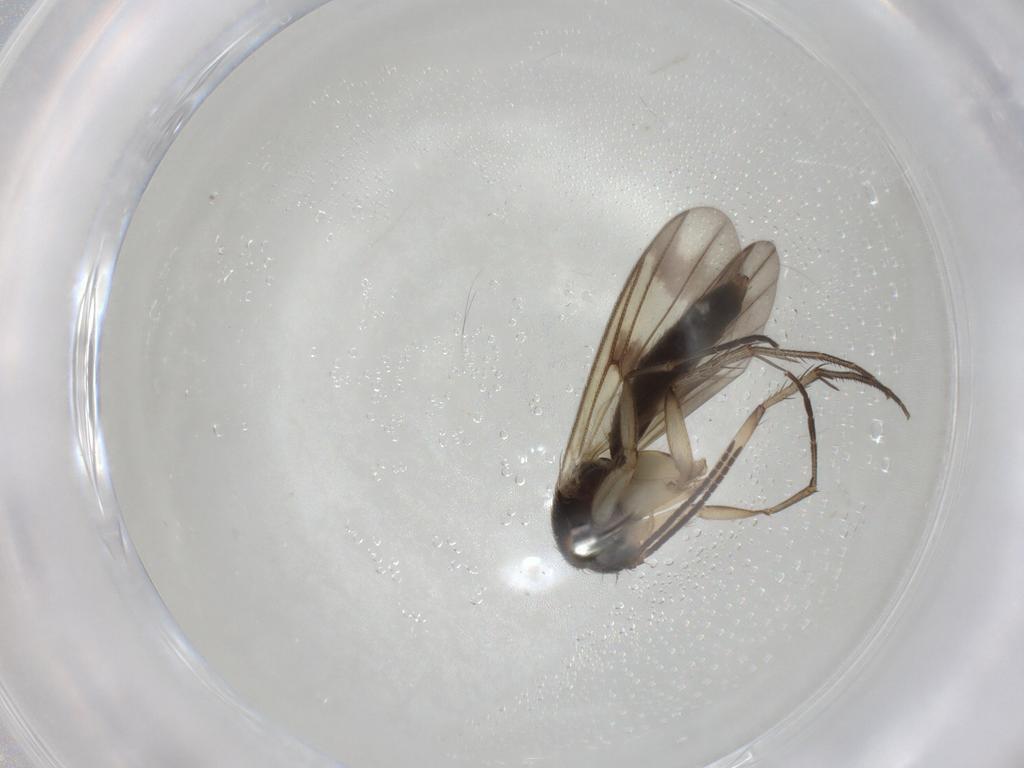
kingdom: Animalia
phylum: Arthropoda
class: Insecta
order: Diptera
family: Mycetophilidae
